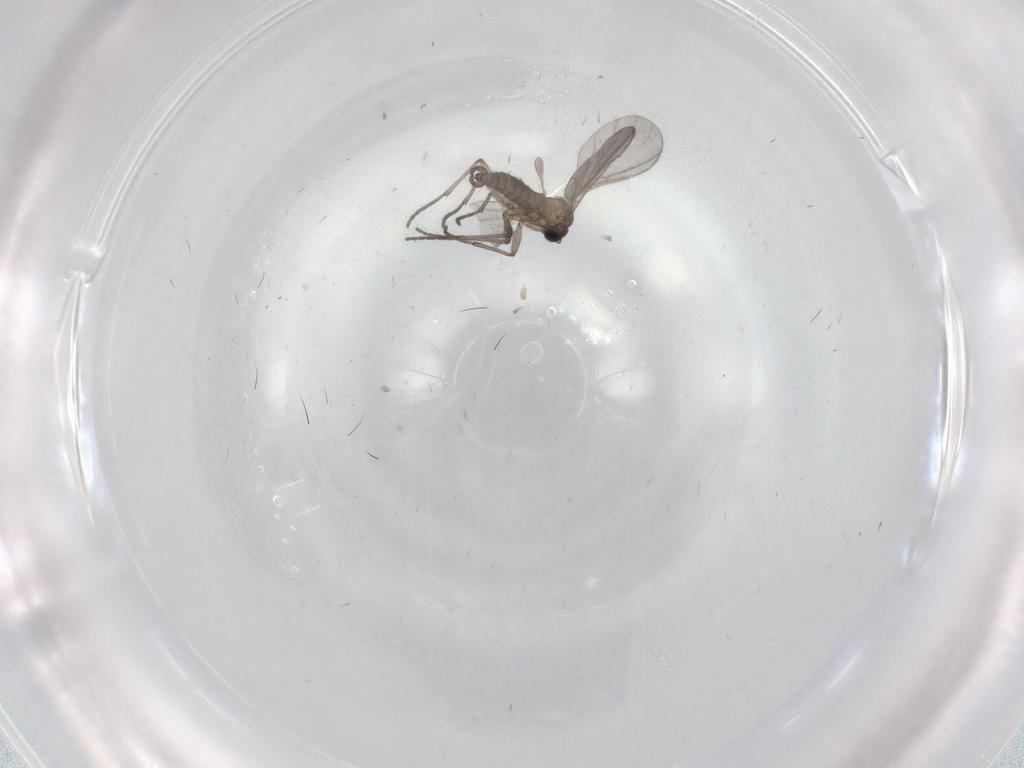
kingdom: Animalia
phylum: Arthropoda
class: Insecta
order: Diptera
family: Sciaridae
